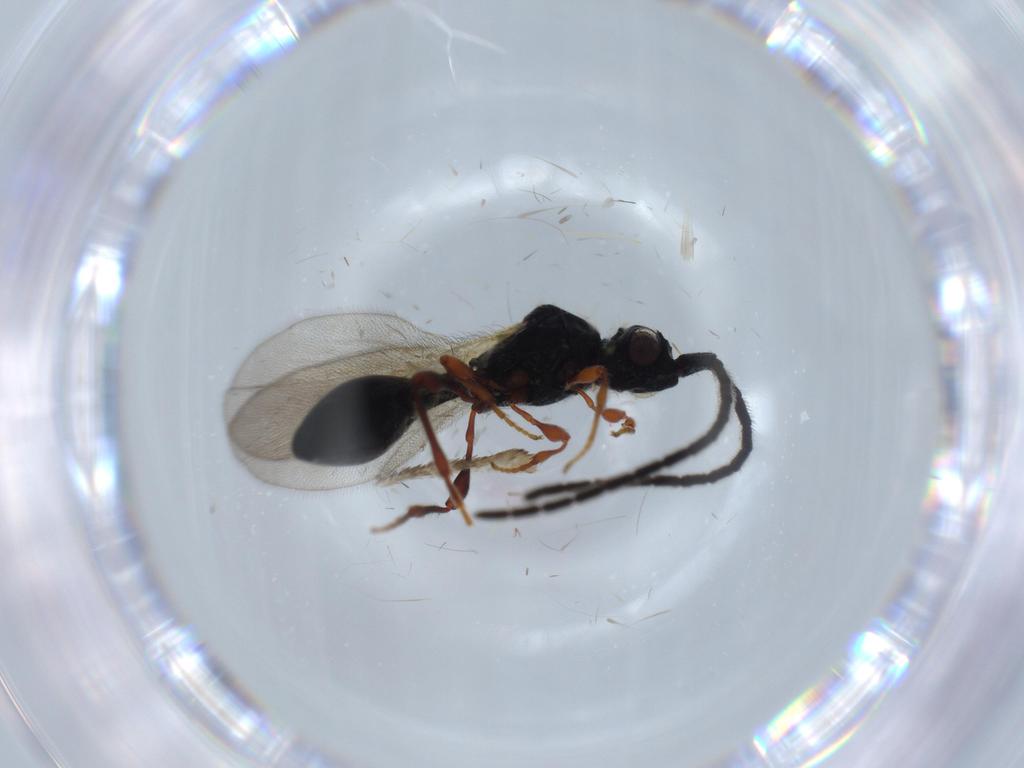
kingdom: Animalia
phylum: Arthropoda
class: Insecta
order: Hymenoptera
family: Diapriidae
